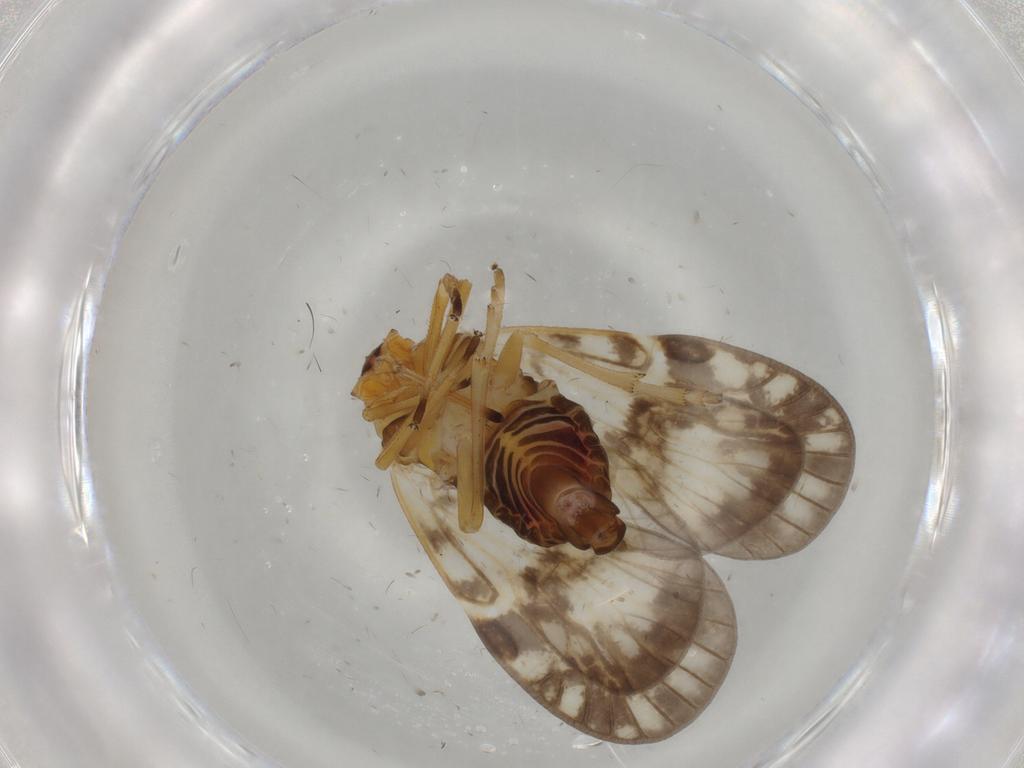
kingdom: Animalia
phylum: Arthropoda
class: Insecta
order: Hemiptera
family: Cixiidae
